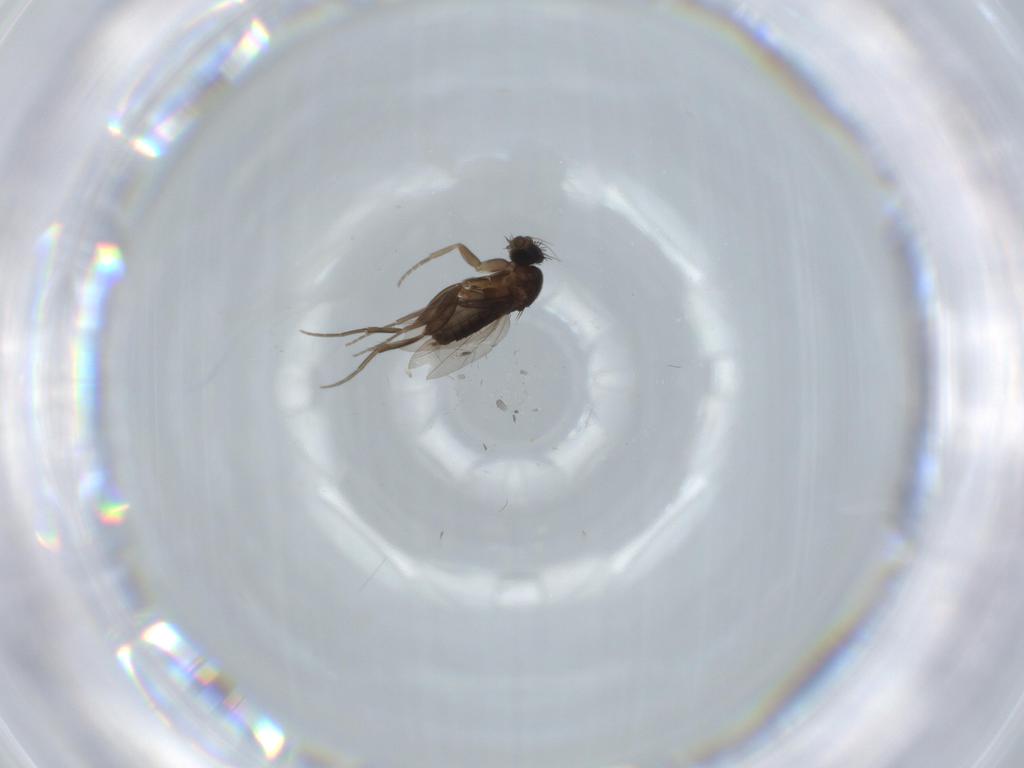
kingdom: Animalia
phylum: Arthropoda
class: Insecta
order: Diptera
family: Phoridae
